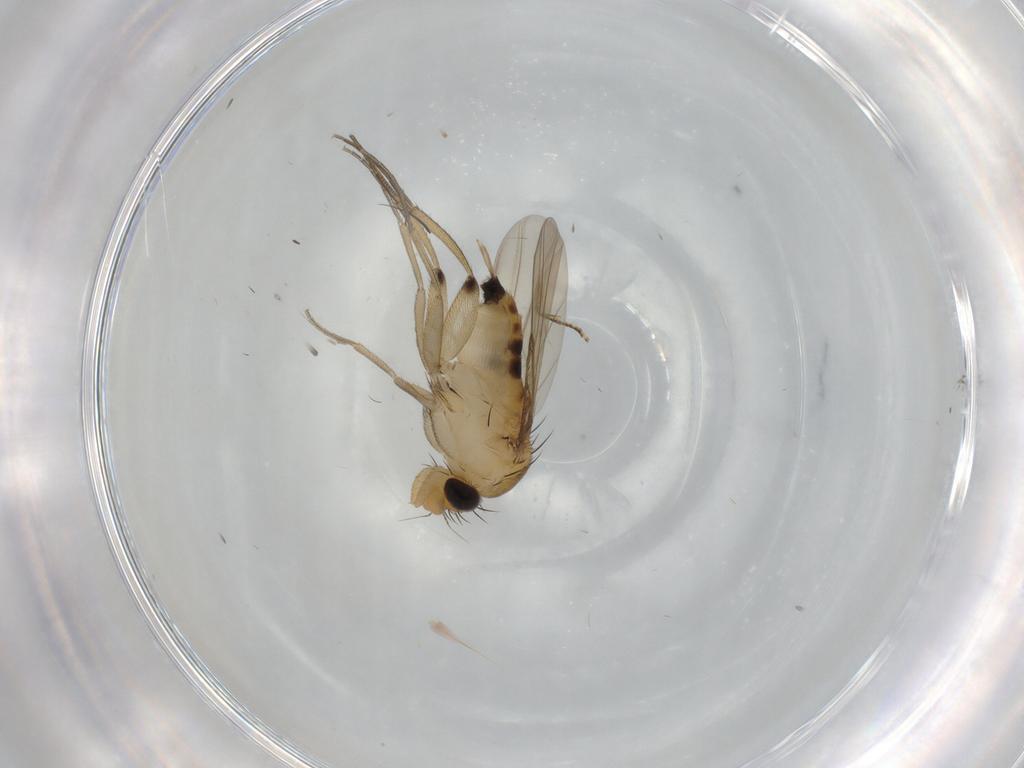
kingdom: Animalia
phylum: Arthropoda
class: Insecta
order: Diptera
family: Phoridae
